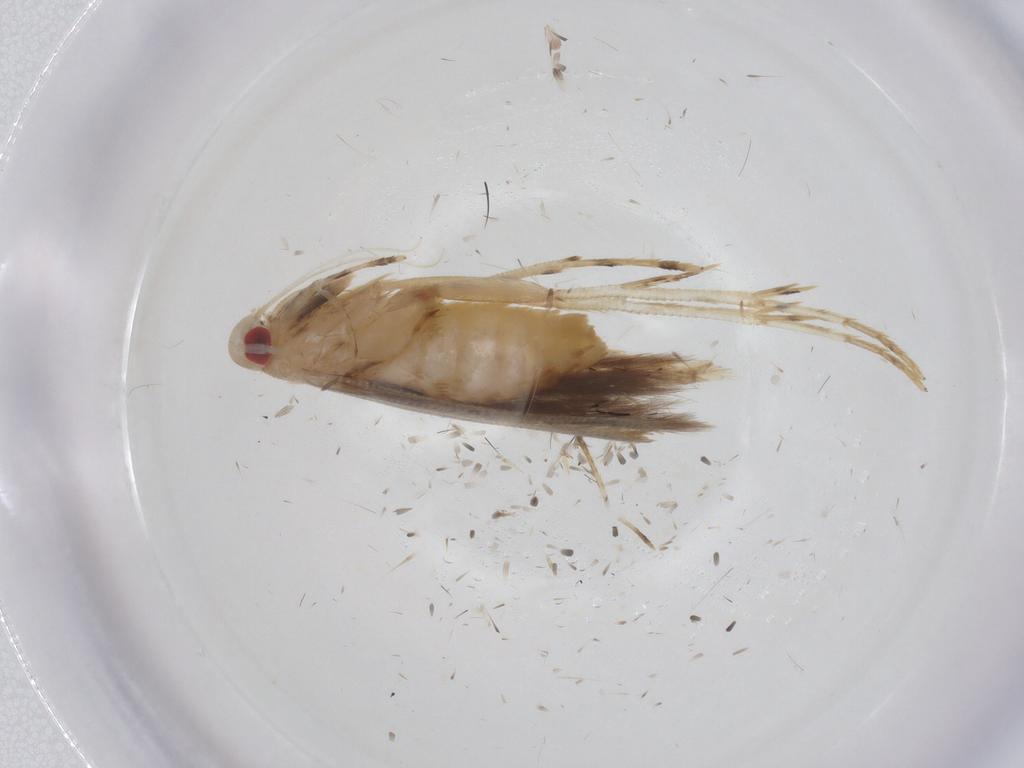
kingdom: Animalia
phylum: Arthropoda
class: Insecta
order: Lepidoptera
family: Cosmopterigidae
